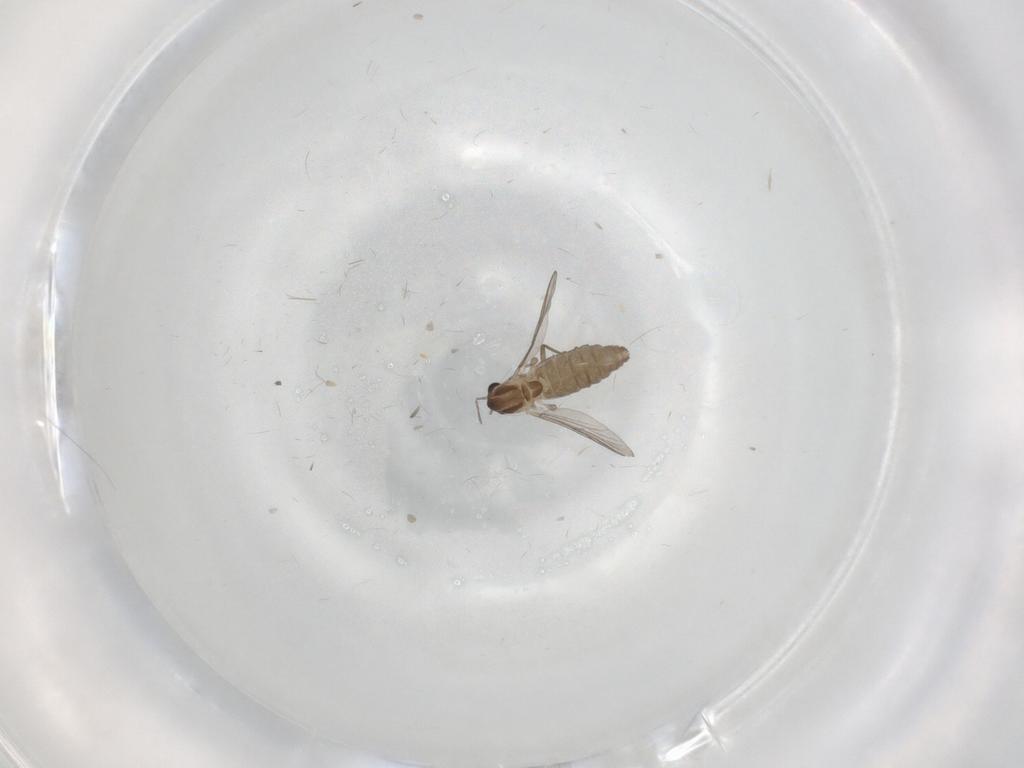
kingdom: Animalia
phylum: Arthropoda
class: Insecta
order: Diptera
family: Chironomidae
